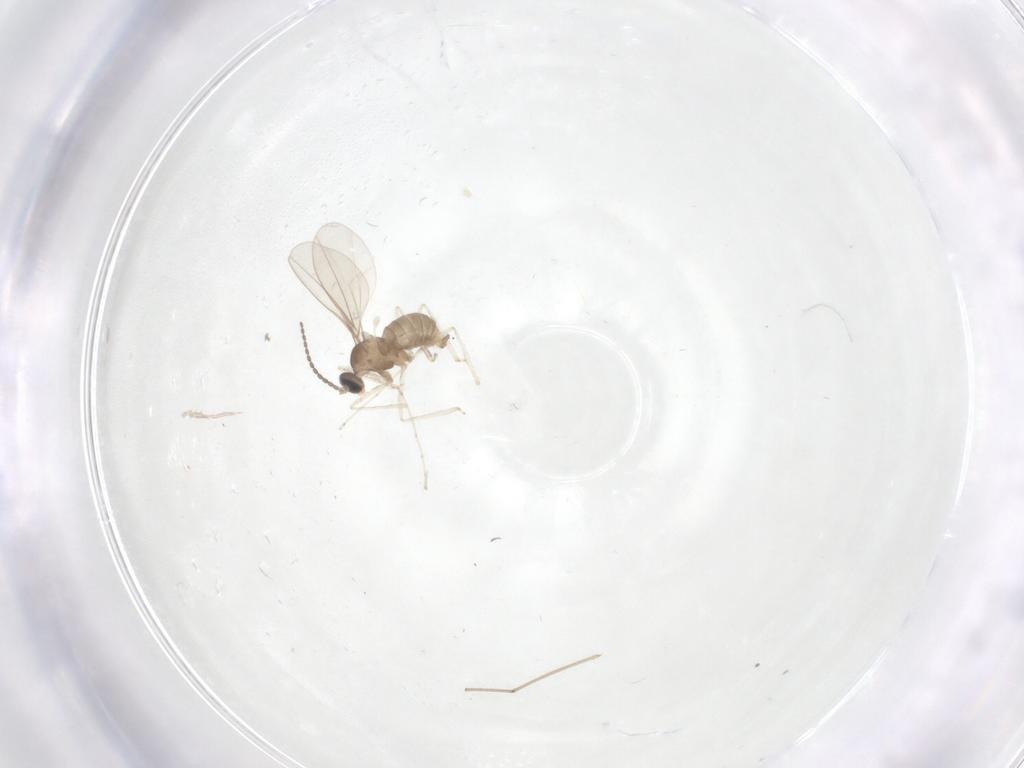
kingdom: Animalia
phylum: Arthropoda
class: Insecta
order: Diptera
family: Cecidomyiidae
